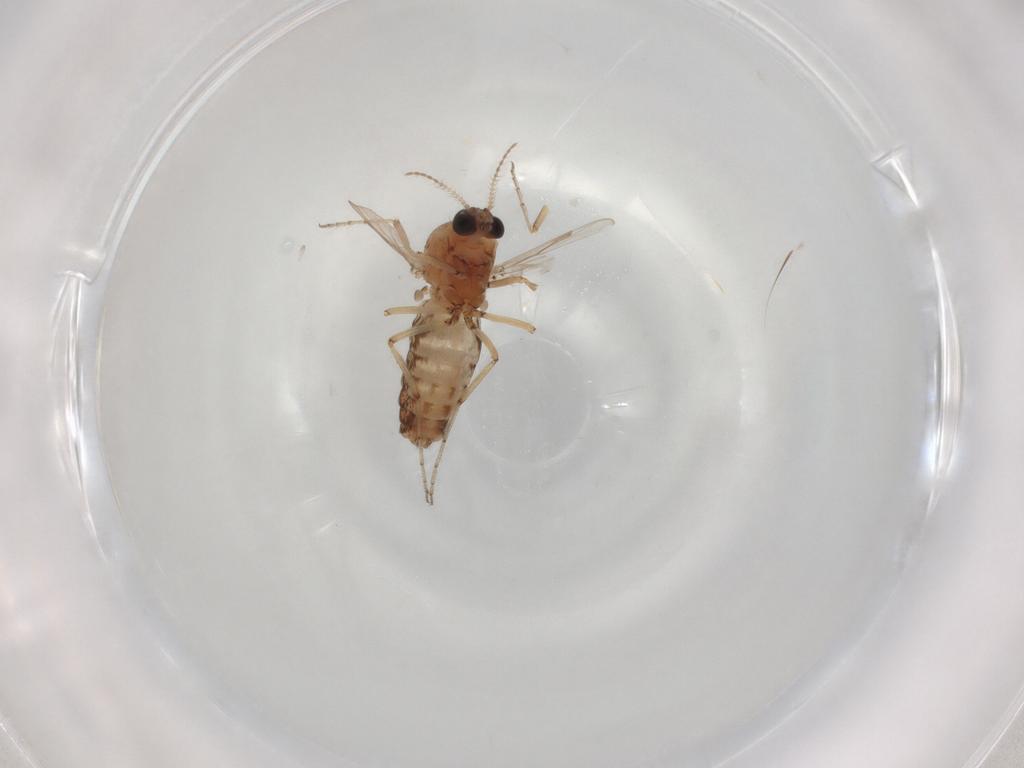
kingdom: Animalia
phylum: Arthropoda
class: Insecta
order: Diptera
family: Ceratopogonidae
